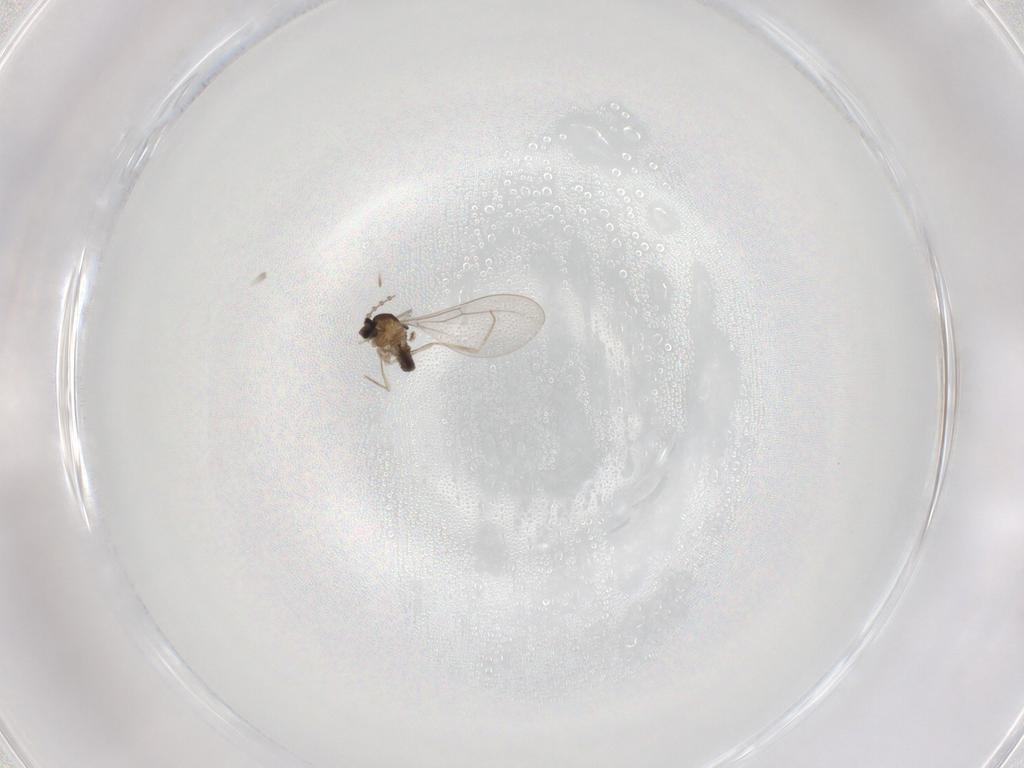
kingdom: Animalia
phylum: Arthropoda
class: Insecta
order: Diptera
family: Cecidomyiidae
